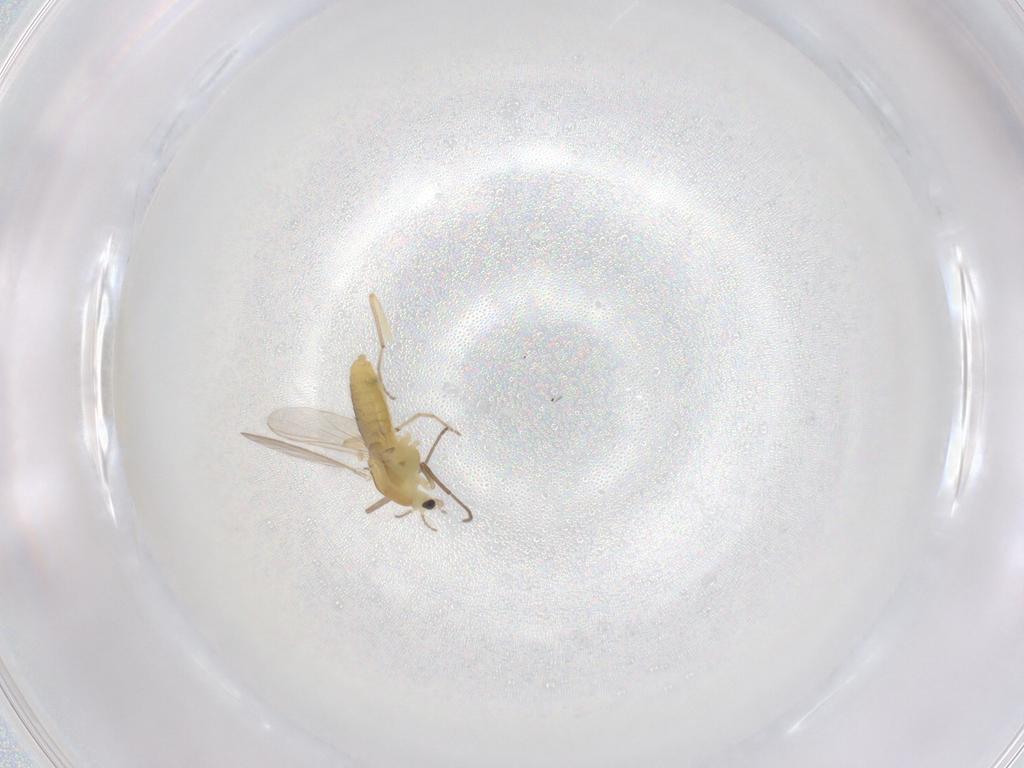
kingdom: Animalia
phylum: Arthropoda
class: Insecta
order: Diptera
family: Chironomidae
